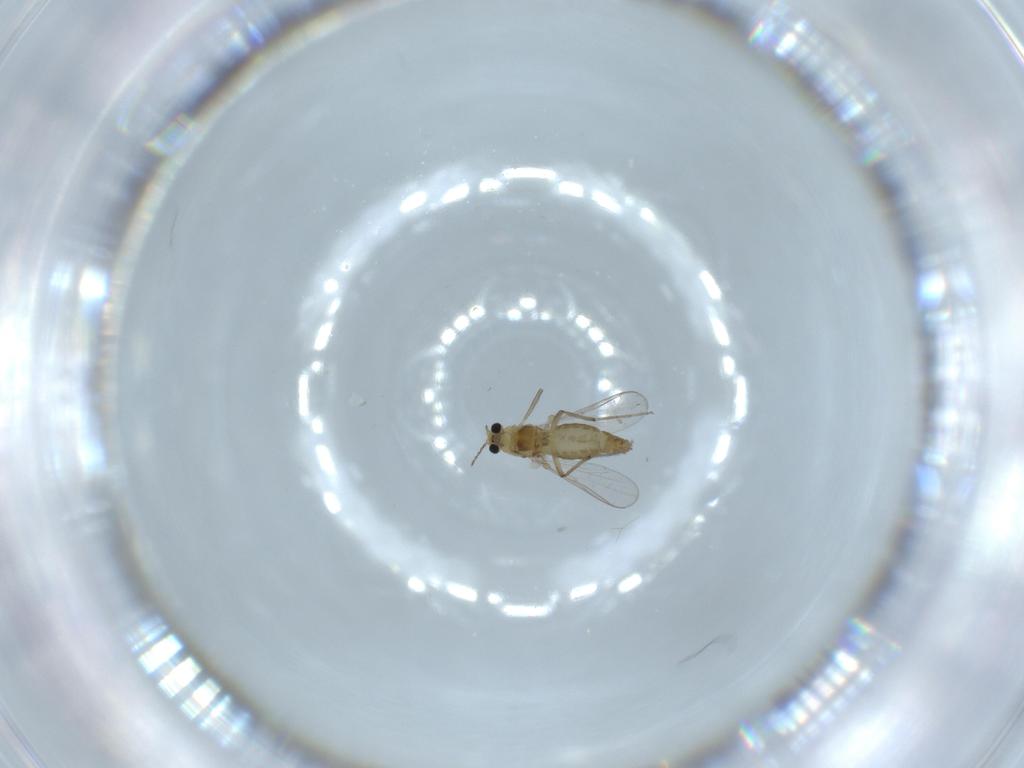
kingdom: Animalia
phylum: Arthropoda
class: Insecta
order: Diptera
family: Chironomidae
